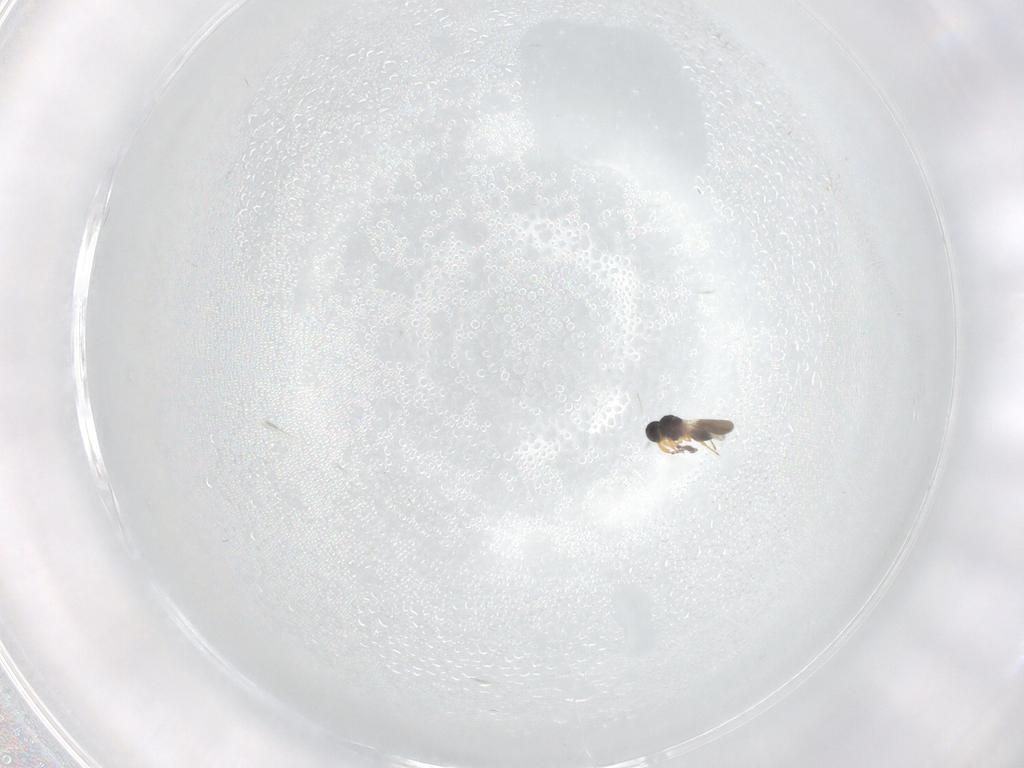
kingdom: Animalia
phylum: Arthropoda
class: Insecta
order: Hymenoptera
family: Platygastridae
